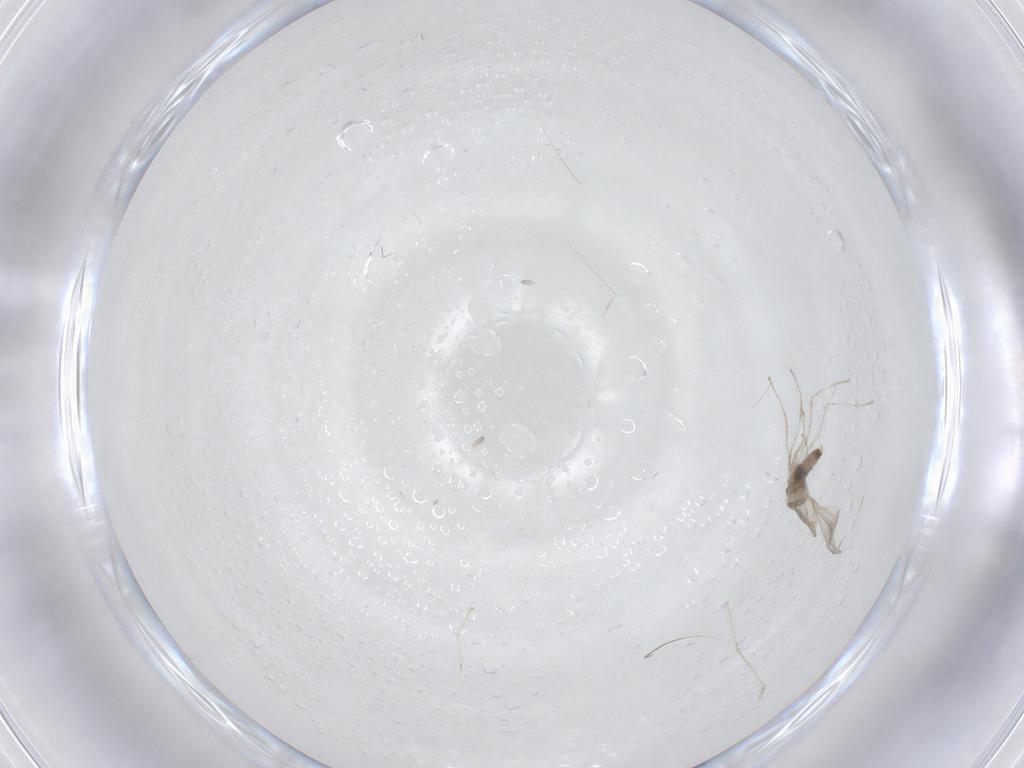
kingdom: Animalia
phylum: Arthropoda
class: Insecta
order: Diptera
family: Cecidomyiidae
